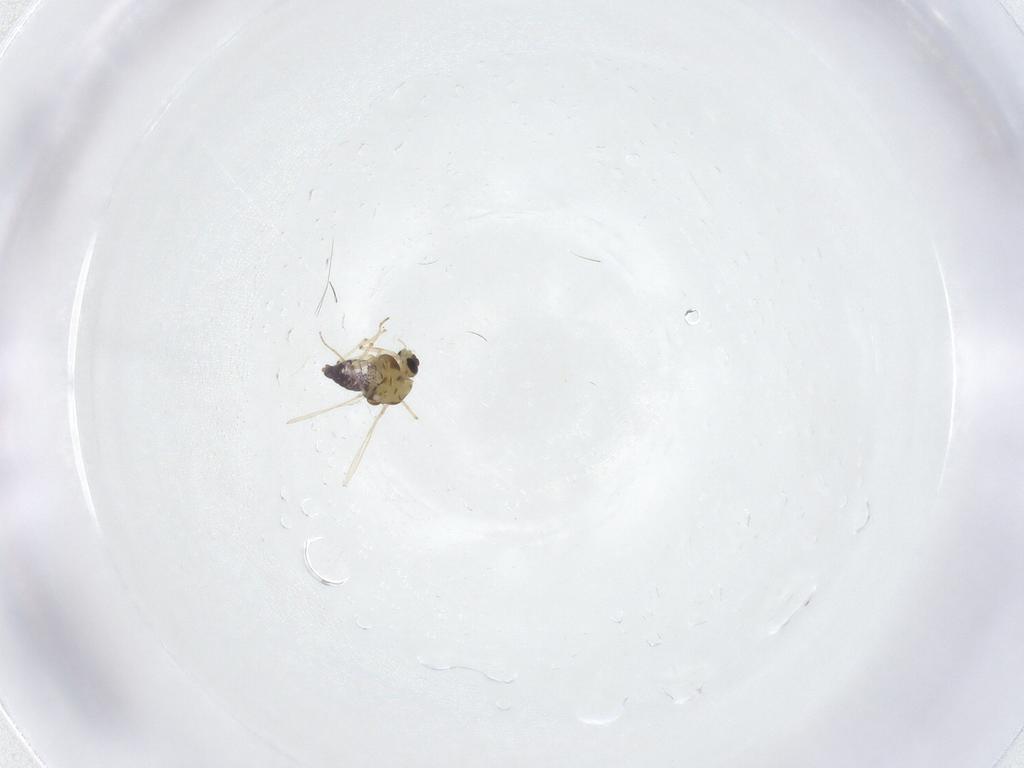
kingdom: Animalia
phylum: Arthropoda
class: Insecta
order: Diptera
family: Chironomidae
